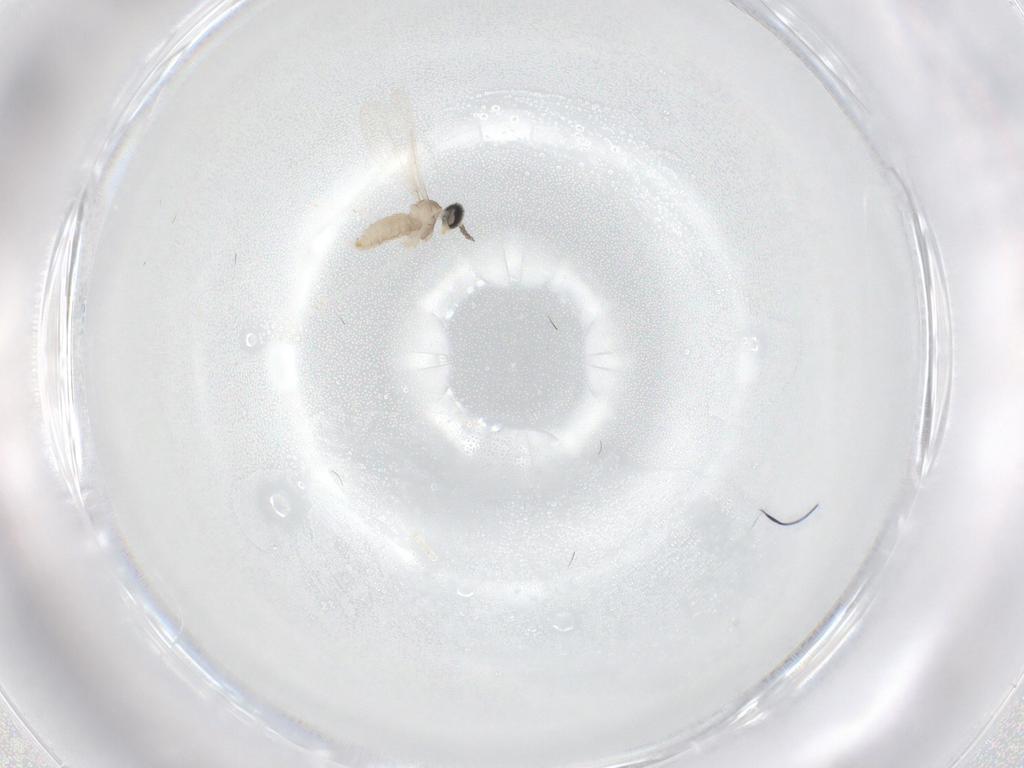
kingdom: Animalia
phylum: Arthropoda
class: Insecta
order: Diptera
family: Cecidomyiidae
